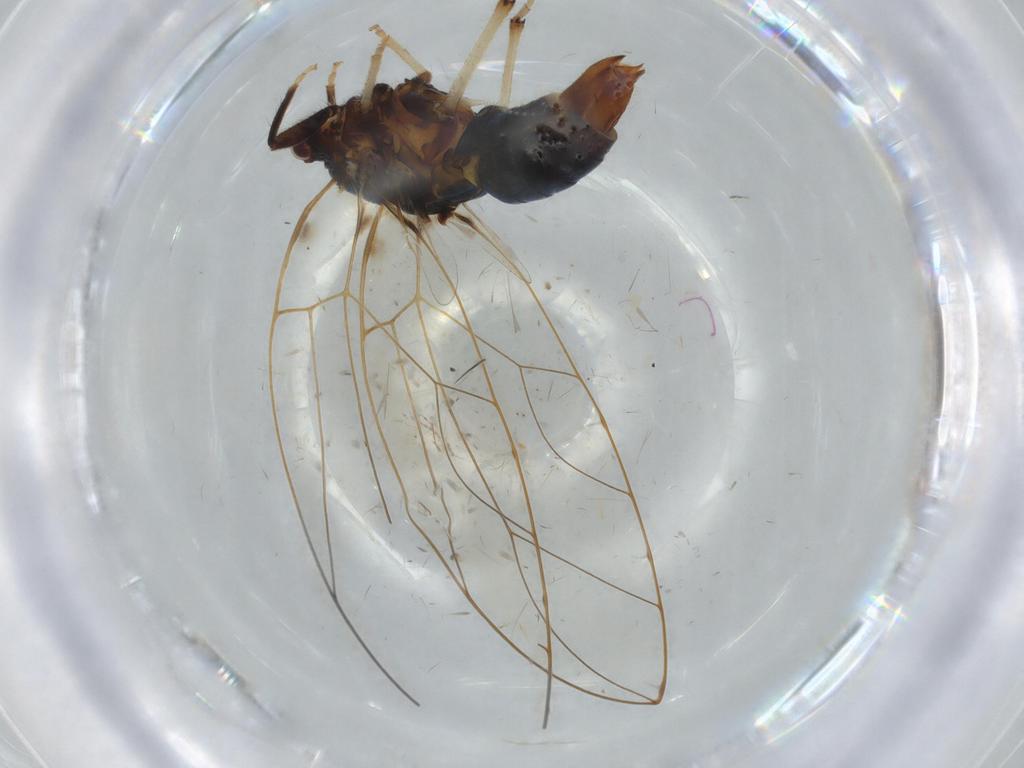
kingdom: Animalia
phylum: Arthropoda
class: Insecta
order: Diptera
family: Ceratopogonidae
